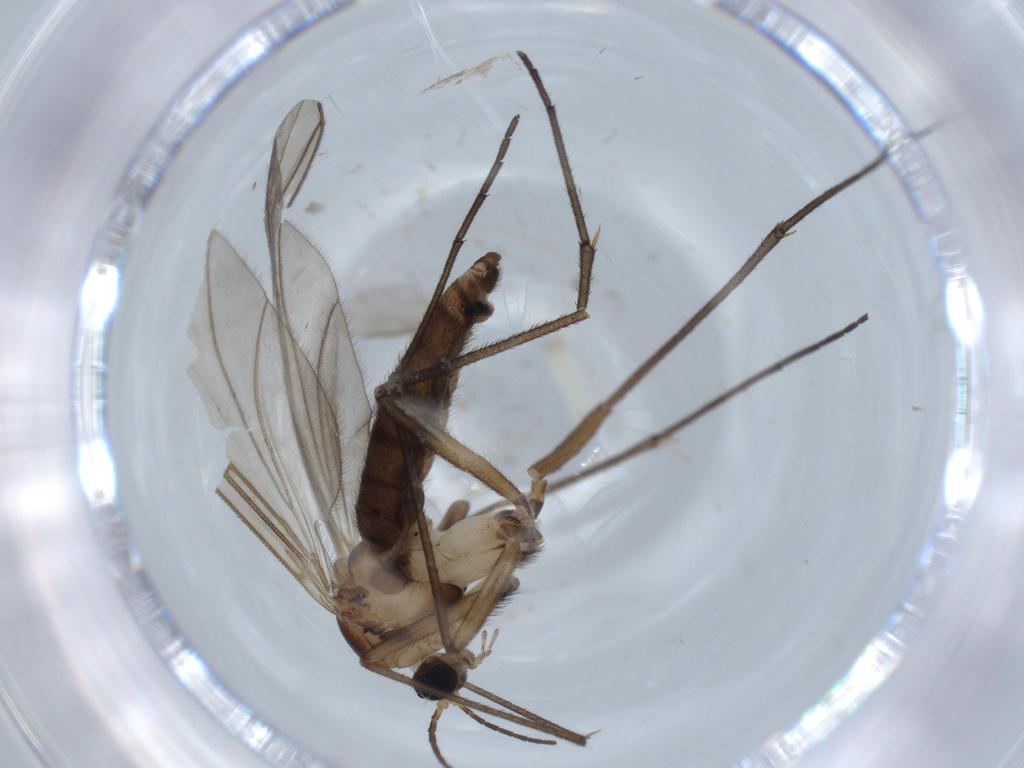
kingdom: Animalia
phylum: Arthropoda
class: Insecta
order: Diptera
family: Sciaridae
